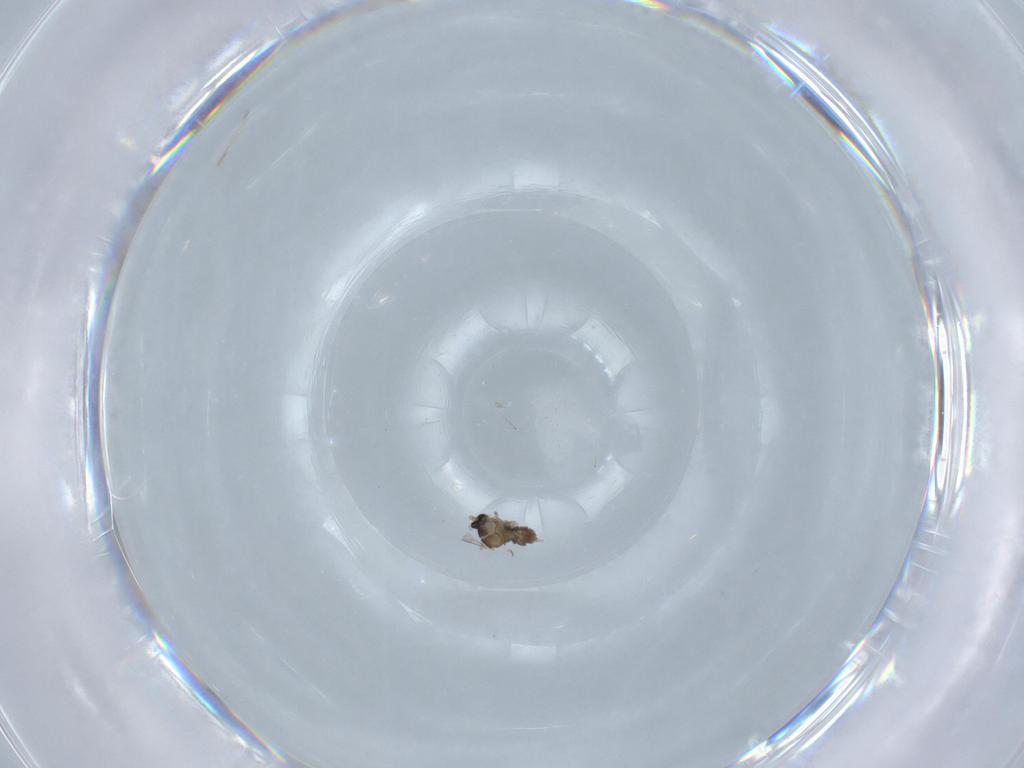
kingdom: Animalia
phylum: Arthropoda
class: Insecta
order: Diptera
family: Cecidomyiidae
